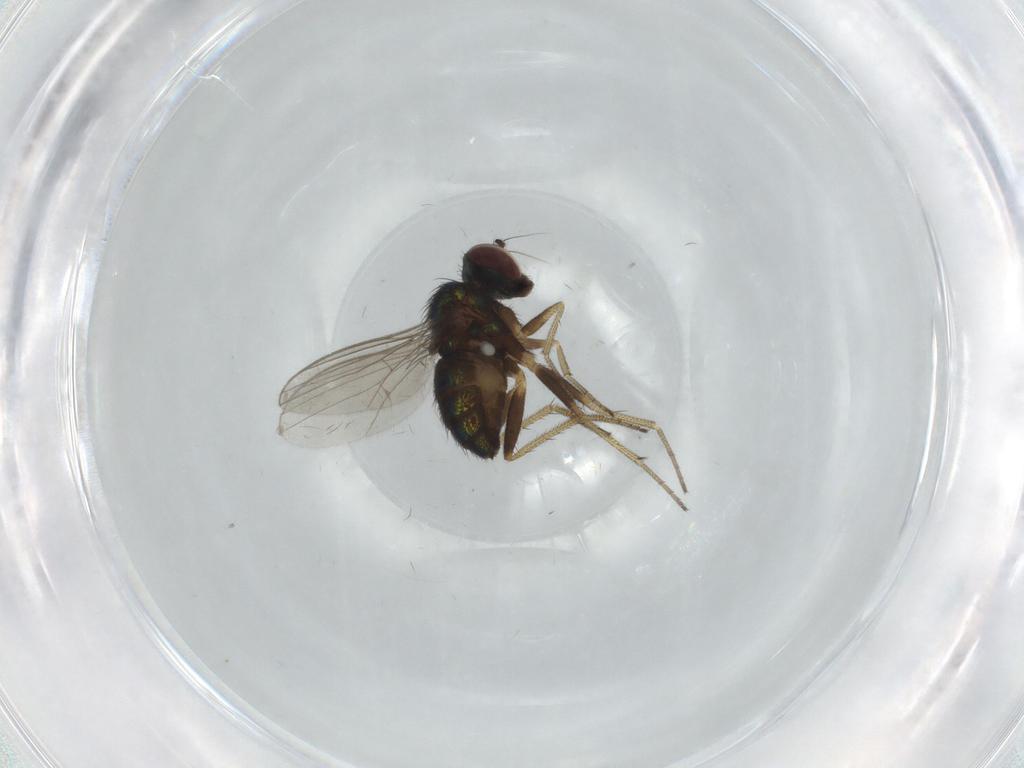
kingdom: Animalia
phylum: Arthropoda
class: Insecta
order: Diptera
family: Dolichopodidae
